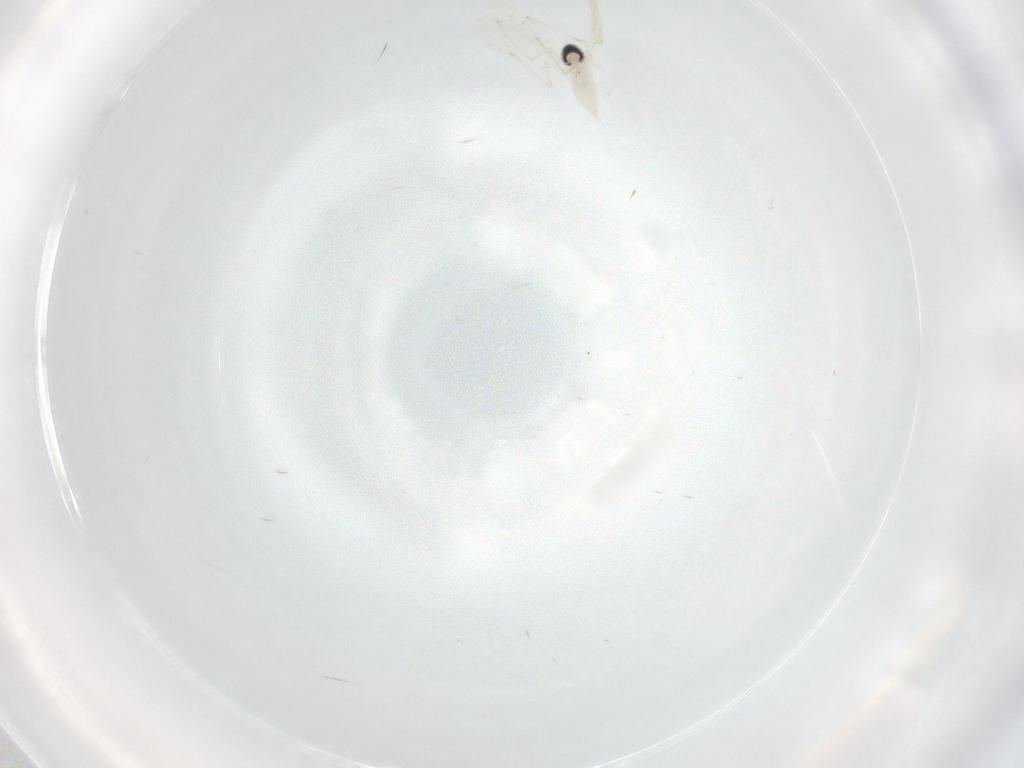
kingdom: Animalia
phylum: Arthropoda
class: Insecta
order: Diptera
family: Cecidomyiidae
